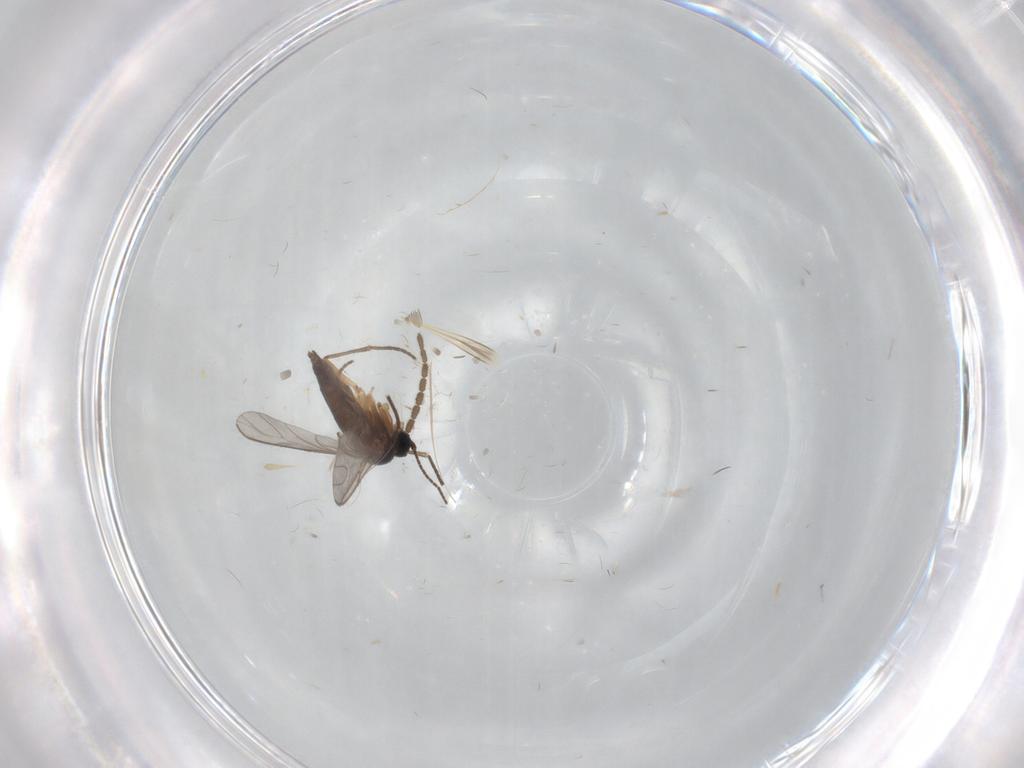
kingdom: Animalia
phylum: Arthropoda
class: Insecta
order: Diptera
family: Sciaridae
